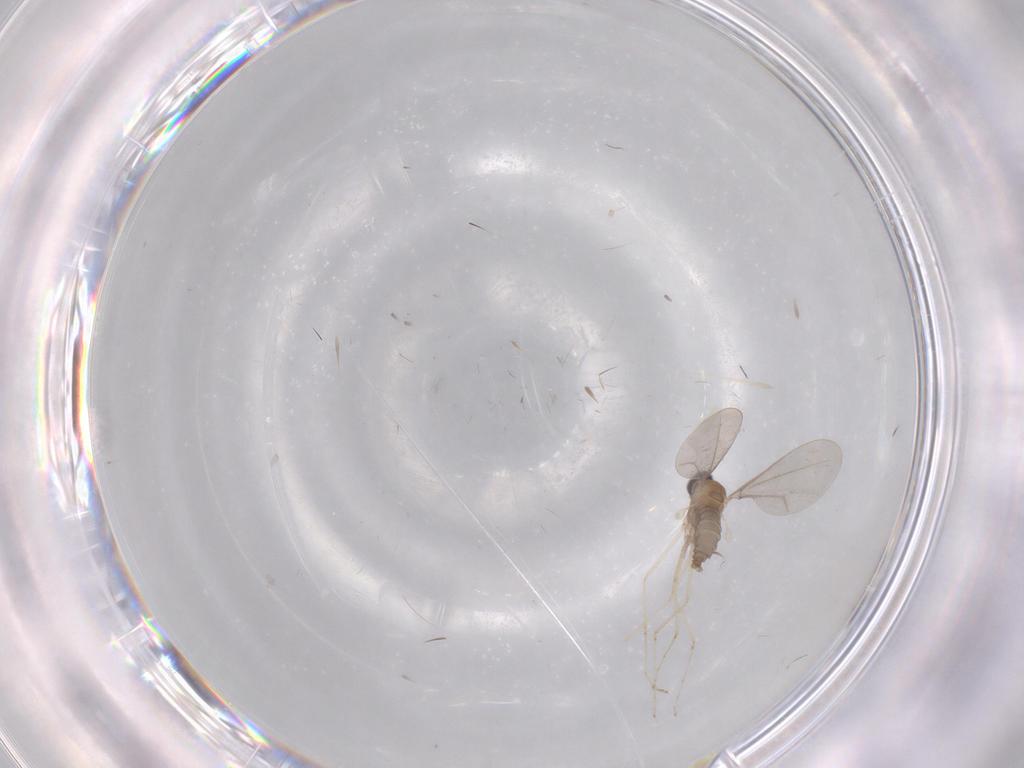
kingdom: Animalia
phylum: Arthropoda
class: Insecta
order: Diptera
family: Cecidomyiidae
